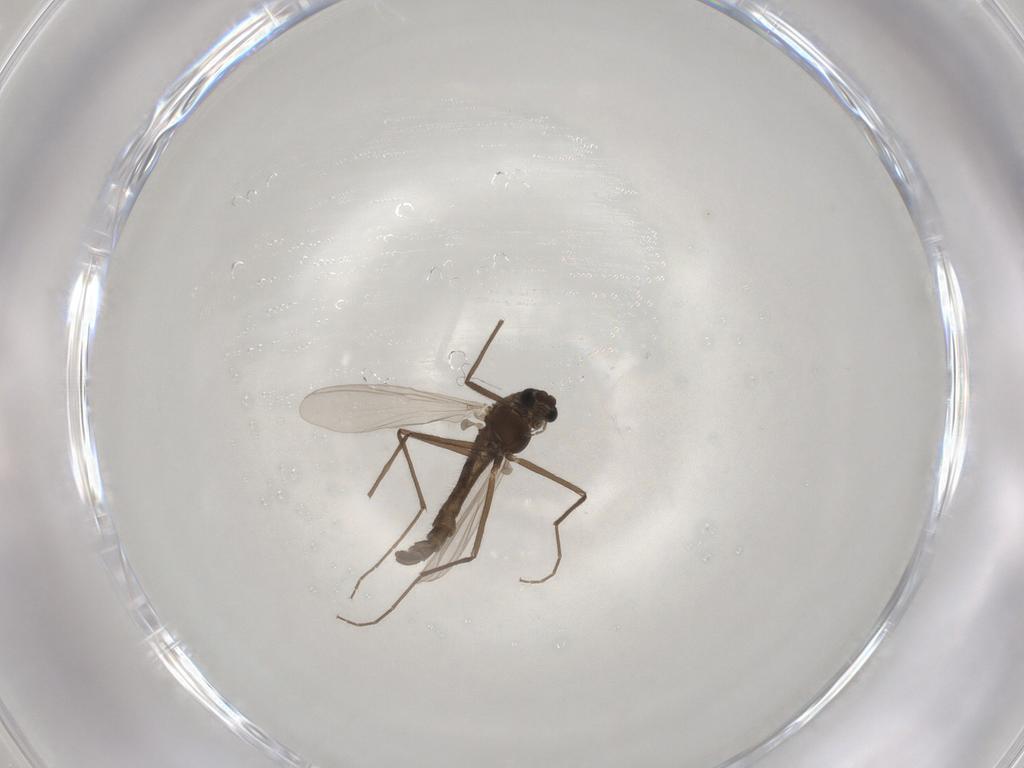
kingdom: Animalia
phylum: Arthropoda
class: Insecta
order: Diptera
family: Chironomidae
